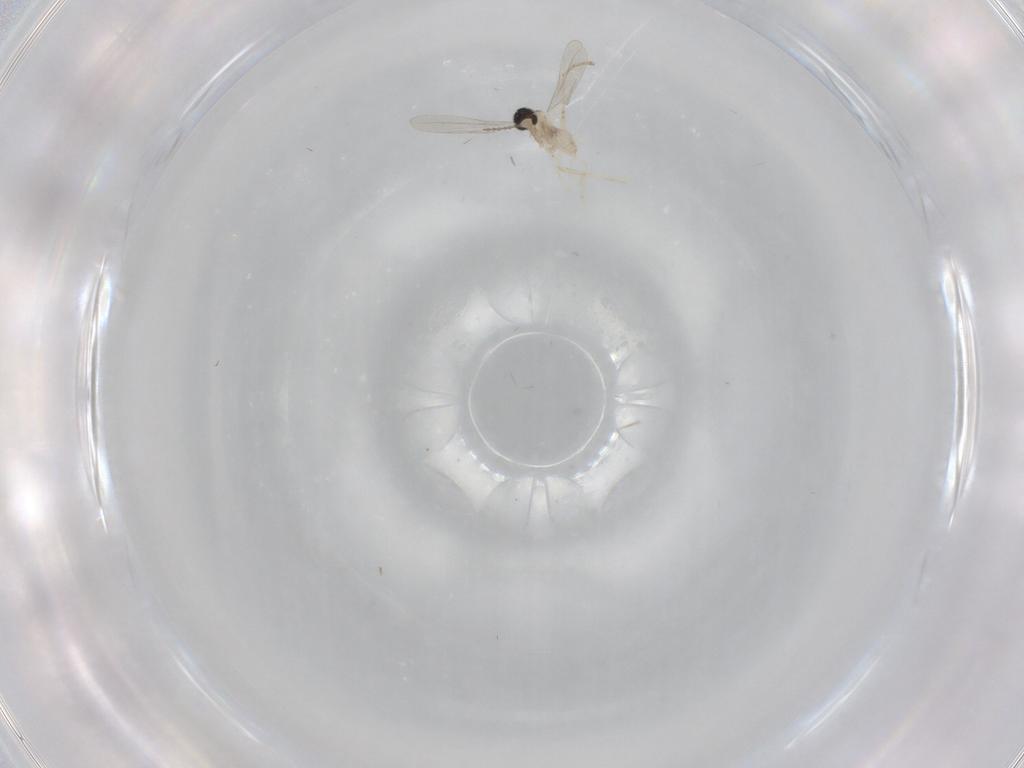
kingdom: Animalia
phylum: Arthropoda
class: Insecta
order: Diptera
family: Cecidomyiidae
